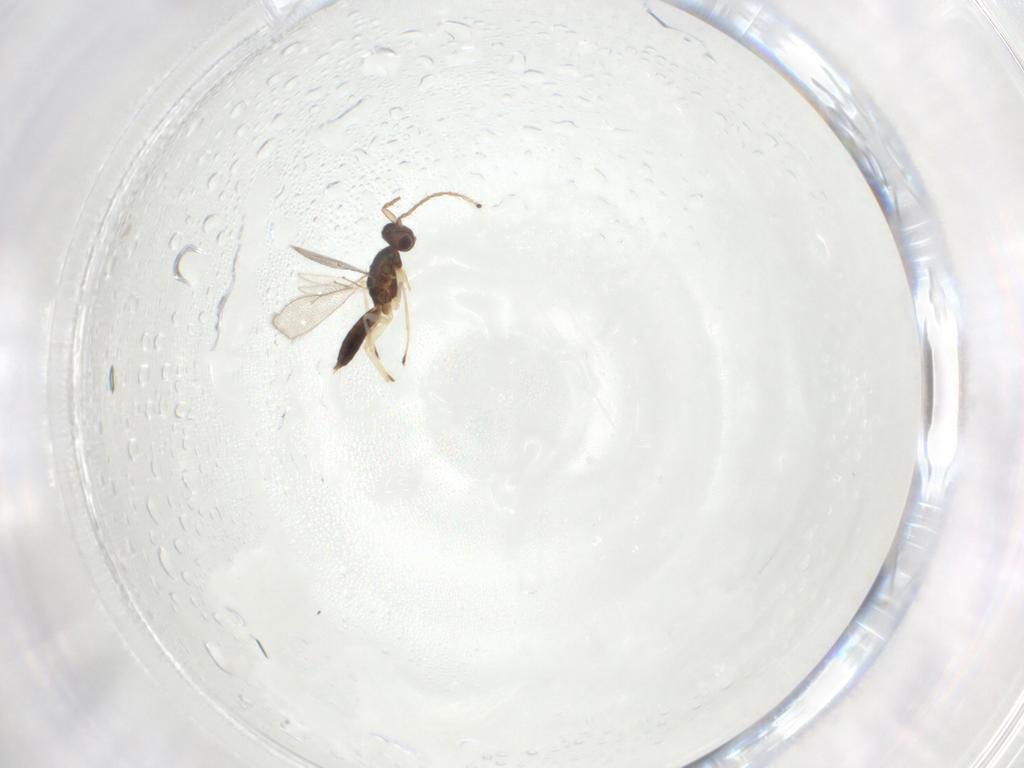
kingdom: Animalia
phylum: Arthropoda
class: Insecta
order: Hymenoptera
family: Eulophidae
